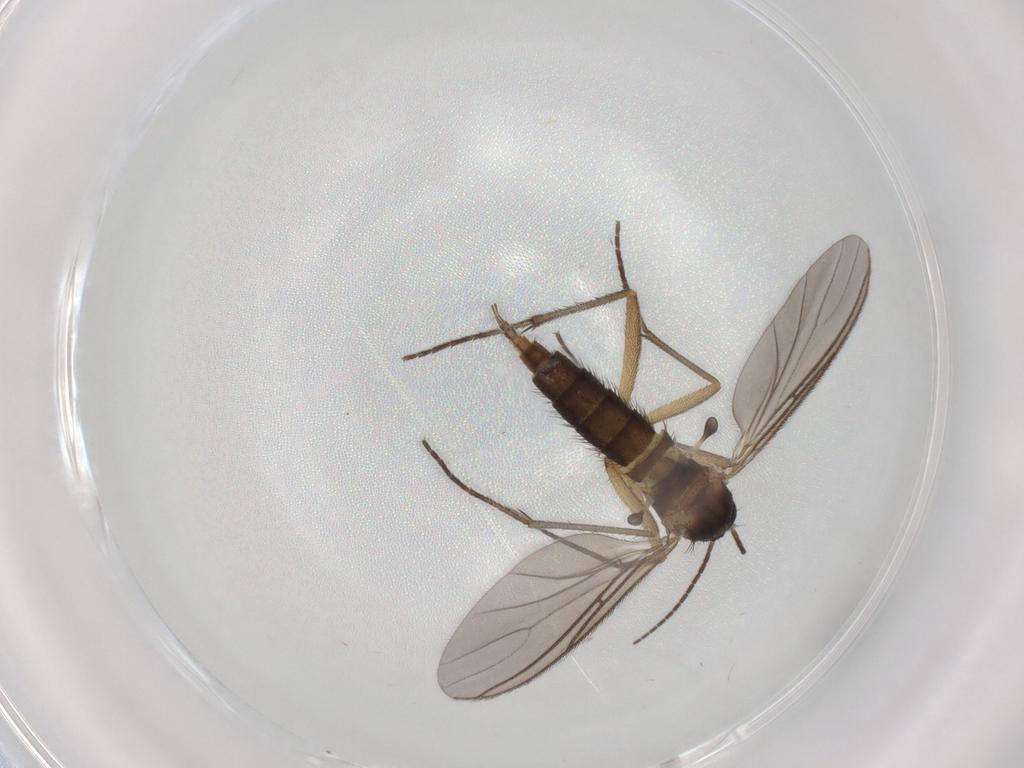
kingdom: Animalia
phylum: Arthropoda
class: Insecta
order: Diptera
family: Sciaridae
